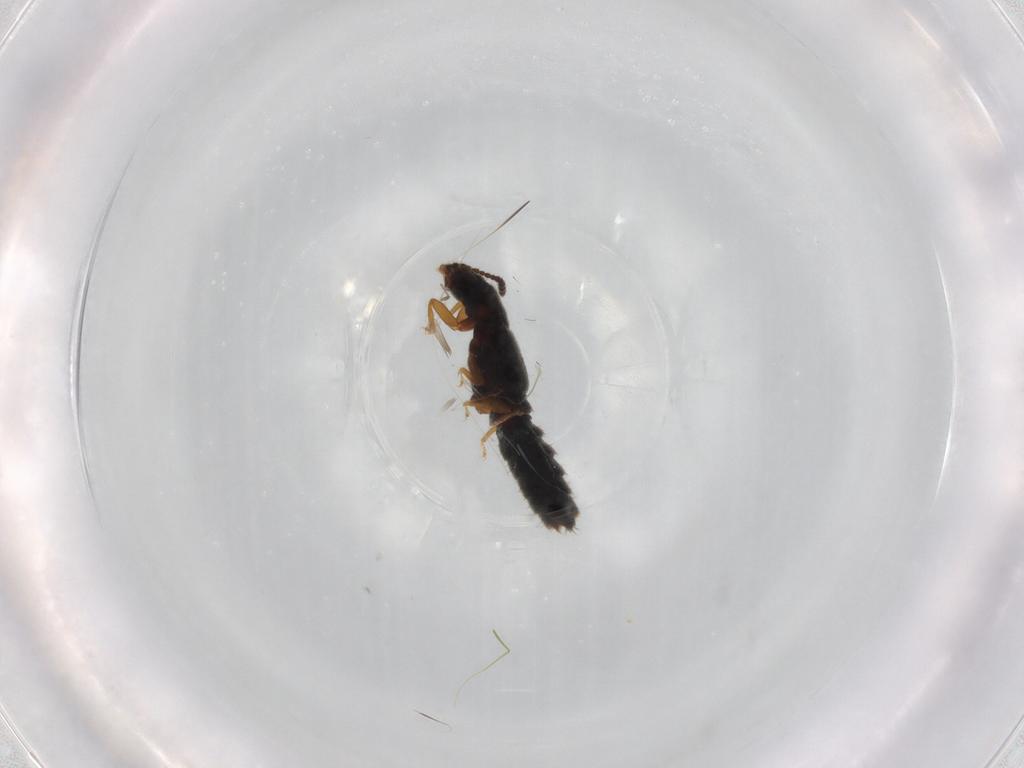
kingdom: Animalia
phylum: Arthropoda
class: Insecta
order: Coleoptera
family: Staphylinidae
